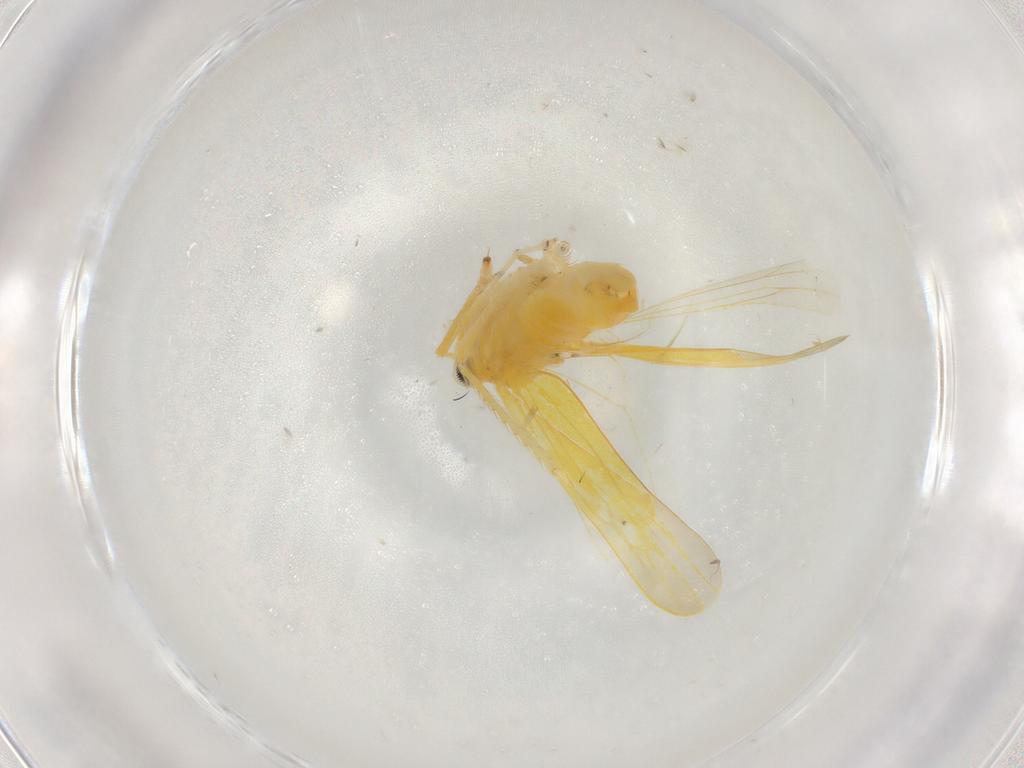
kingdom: Animalia
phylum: Arthropoda
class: Insecta
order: Hemiptera
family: Cicadellidae
